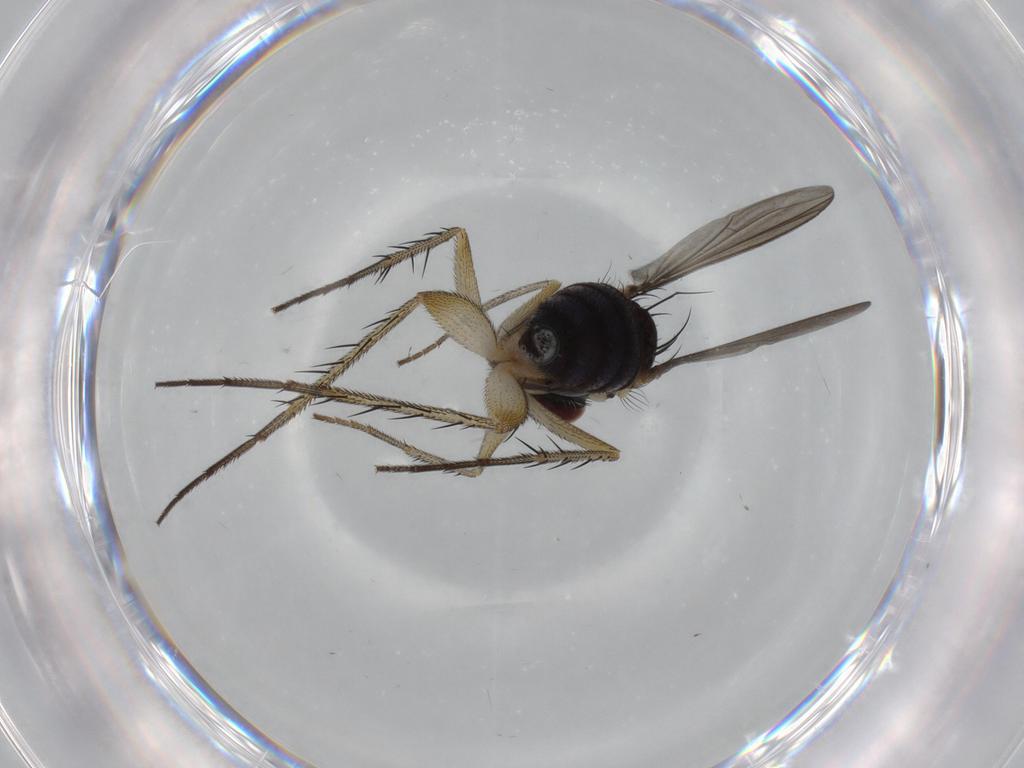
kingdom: Animalia
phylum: Arthropoda
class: Insecta
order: Diptera
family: Dolichopodidae
